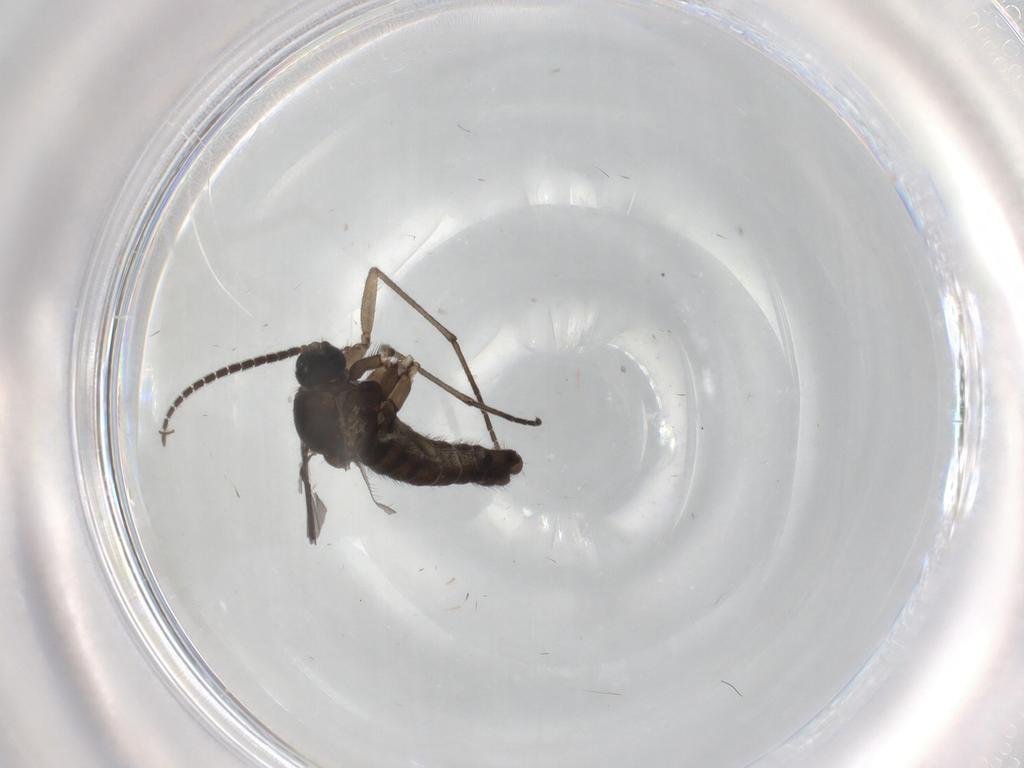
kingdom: Animalia
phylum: Arthropoda
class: Insecta
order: Diptera
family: Sciaridae
